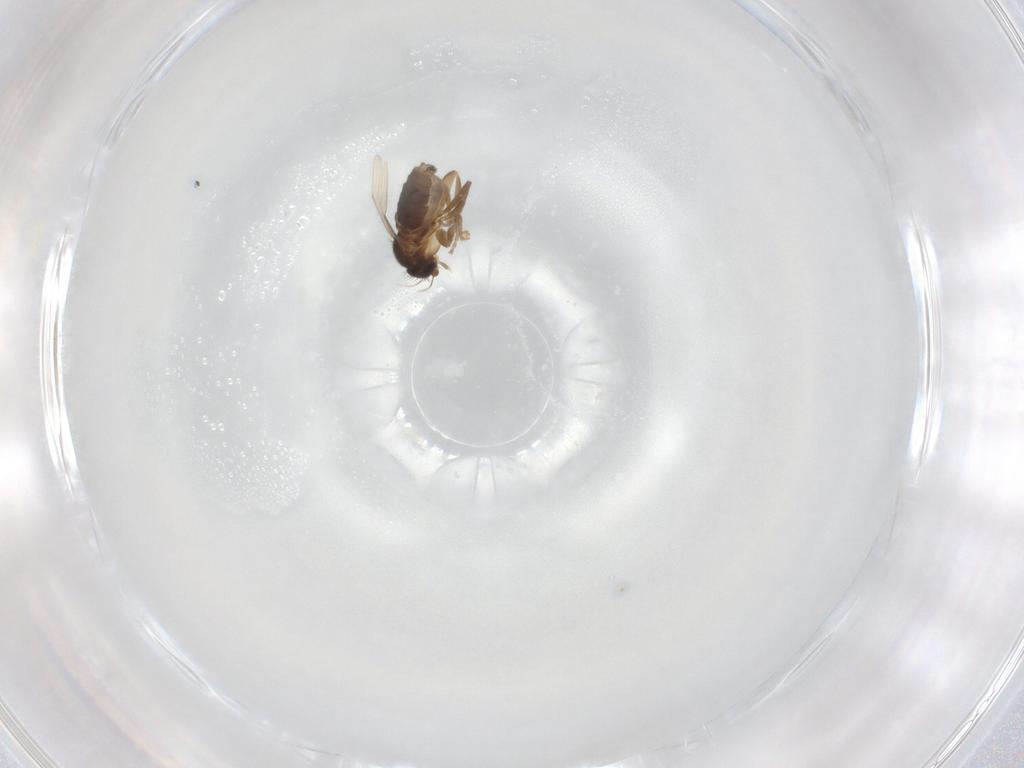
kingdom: Animalia
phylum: Arthropoda
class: Insecta
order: Diptera
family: Phoridae
